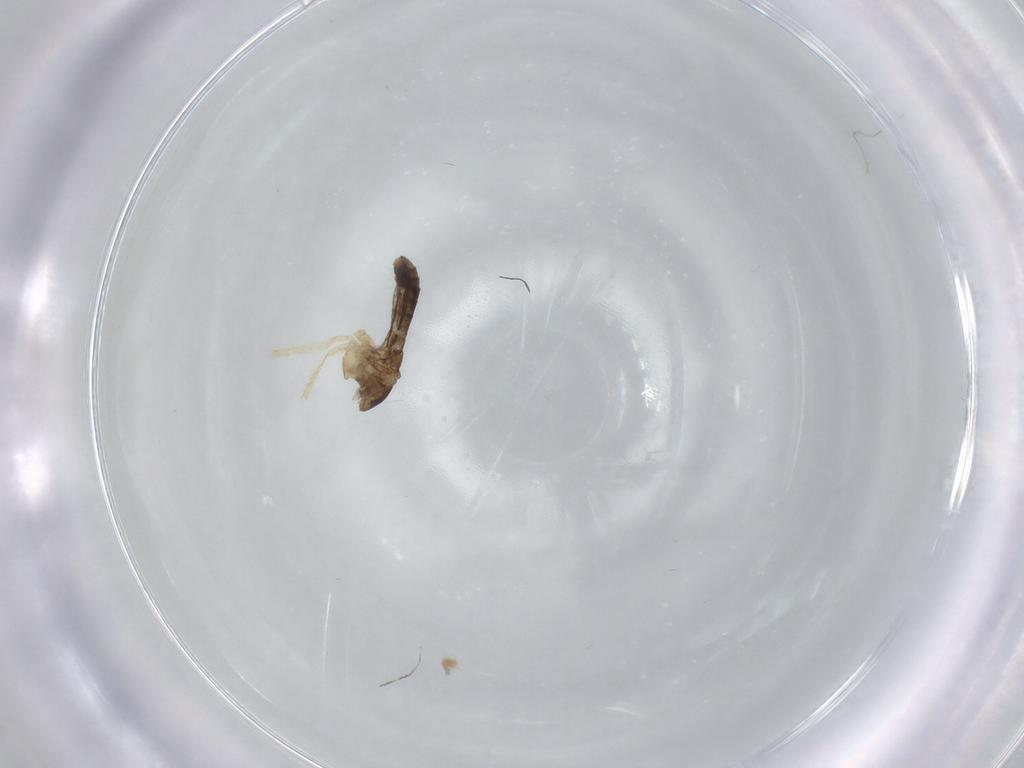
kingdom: Animalia
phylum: Arthropoda
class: Insecta
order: Diptera
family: Chironomidae
